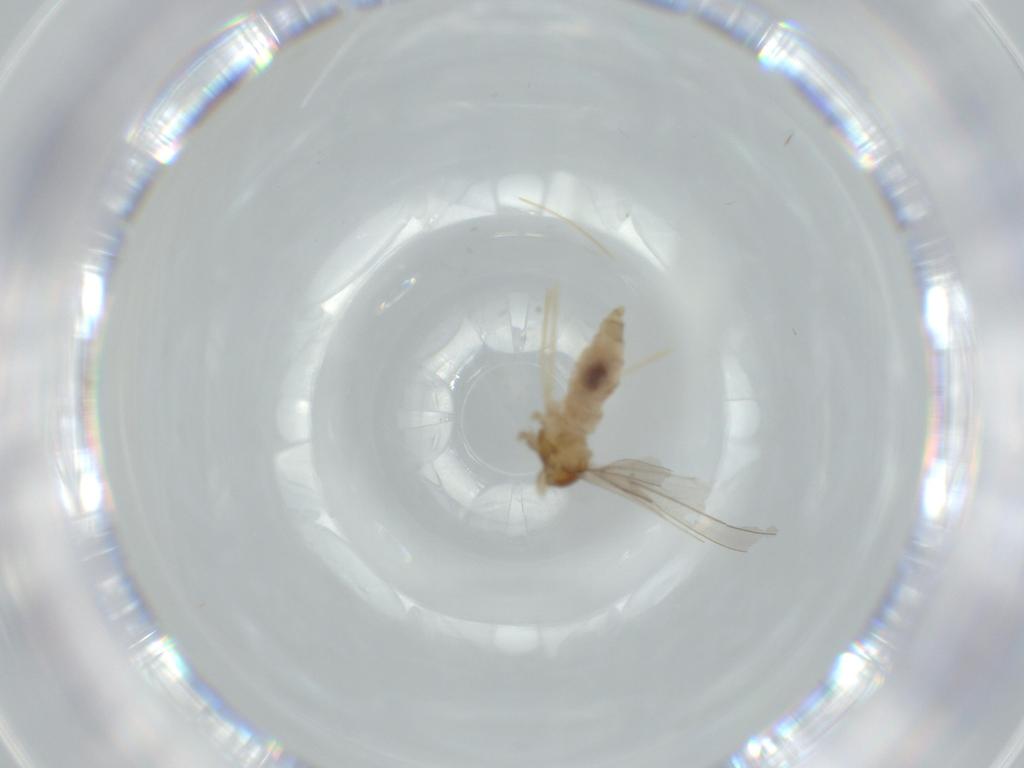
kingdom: Animalia
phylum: Arthropoda
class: Insecta
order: Diptera
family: Cecidomyiidae
